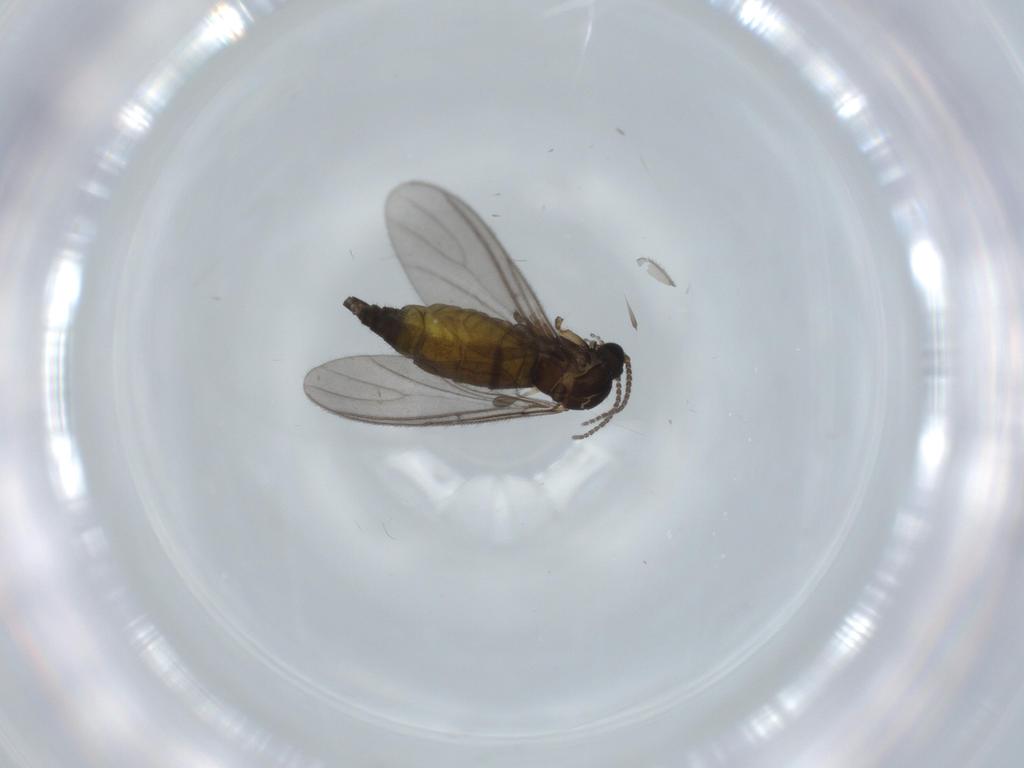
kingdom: Animalia
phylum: Arthropoda
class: Insecta
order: Diptera
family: Sciaridae
